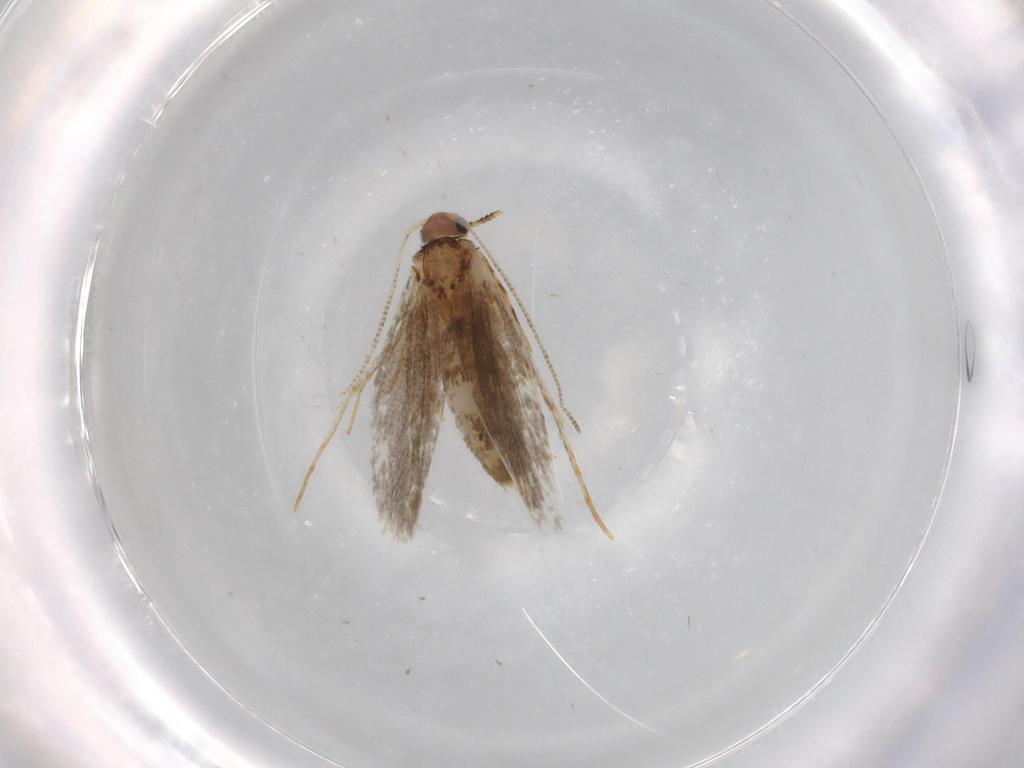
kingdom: Animalia
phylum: Arthropoda
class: Insecta
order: Lepidoptera
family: Tineidae
